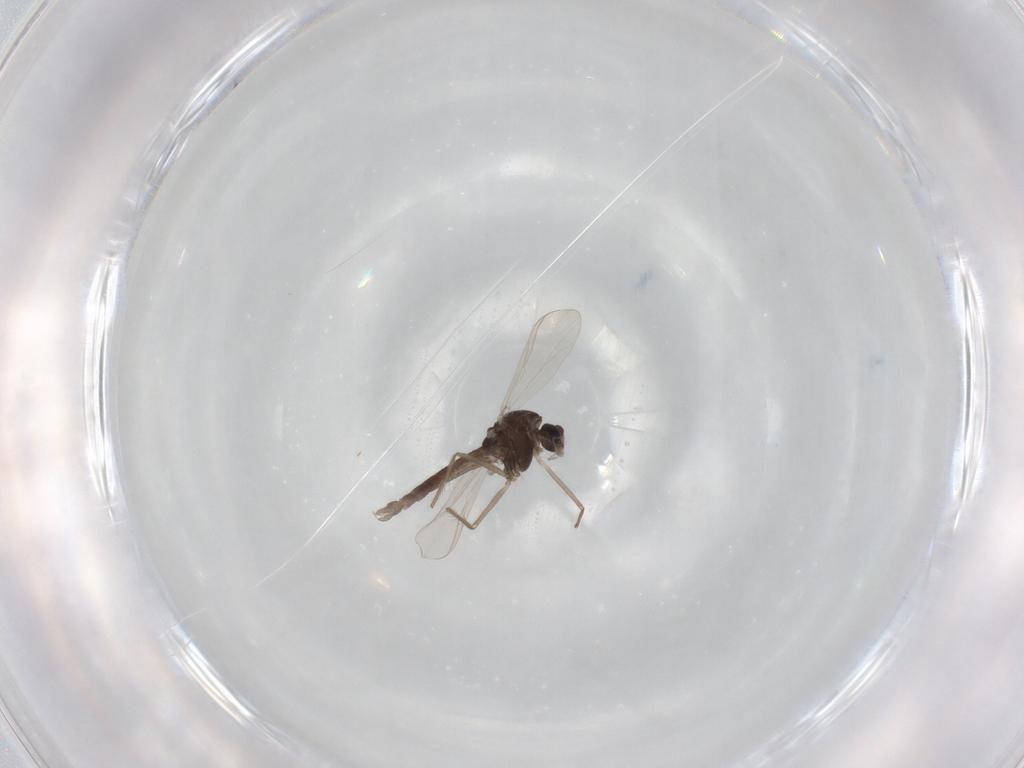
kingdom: Animalia
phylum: Arthropoda
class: Insecta
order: Diptera
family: Chironomidae
